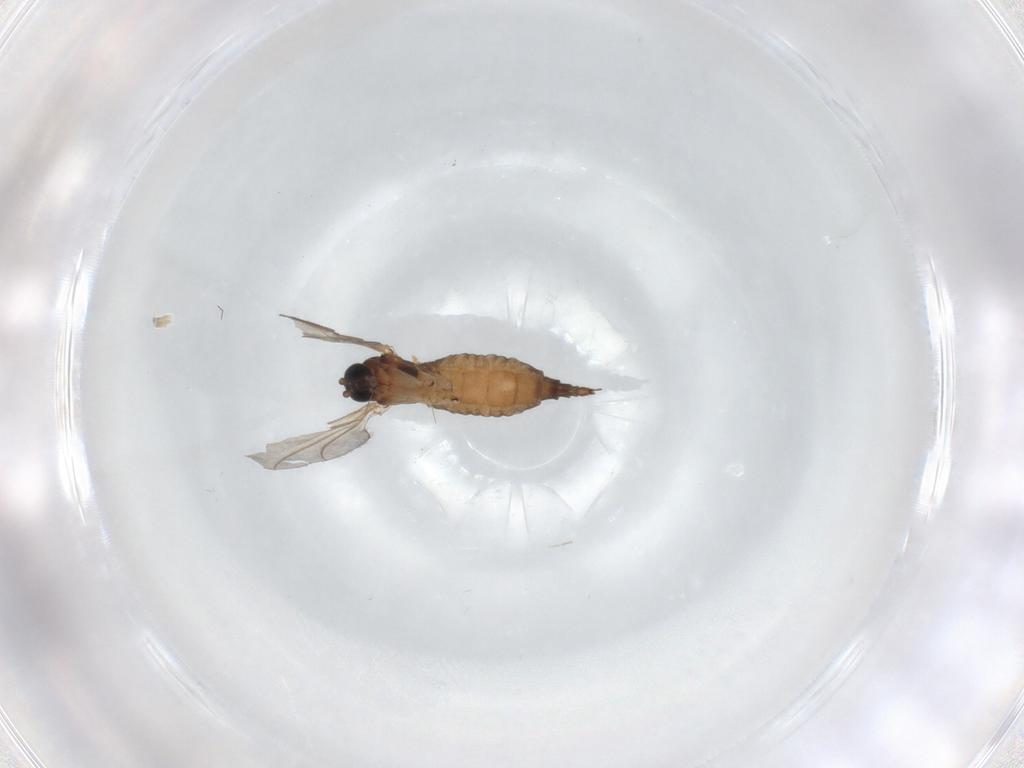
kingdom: Animalia
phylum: Arthropoda
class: Insecta
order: Diptera
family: Sciaridae
